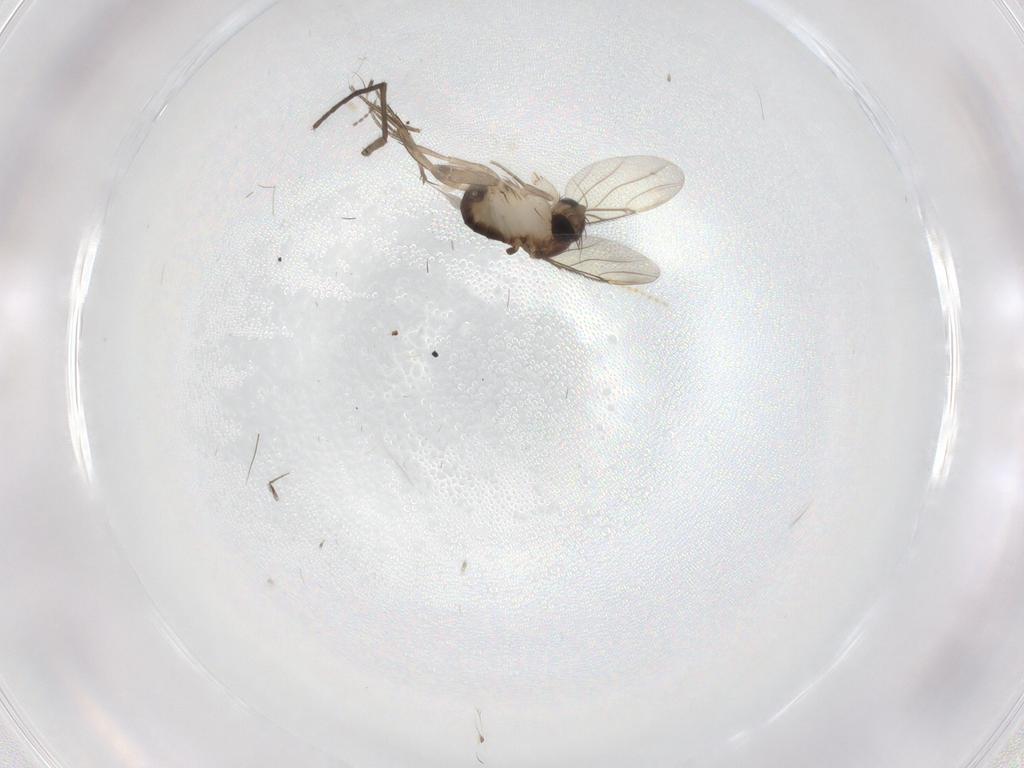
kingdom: Animalia
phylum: Arthropoda
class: Insecta
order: Diptera
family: Phoridae
